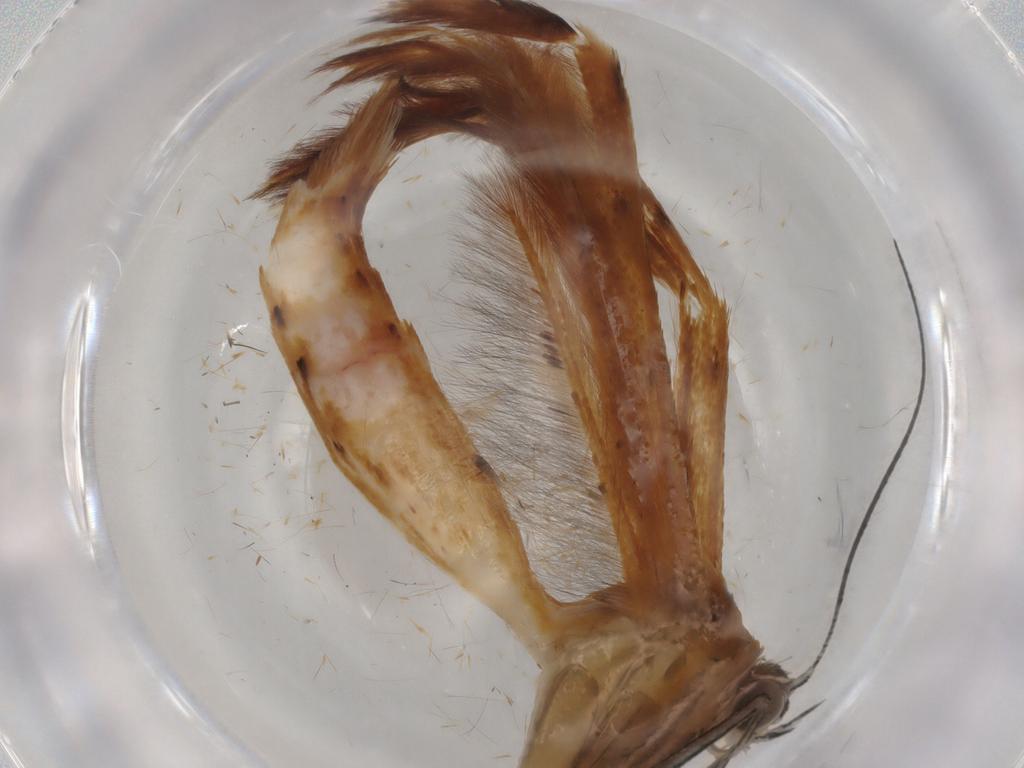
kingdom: Animalia
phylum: Arthropoda
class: Insecta
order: Lepidoptera
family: Pterophoridae
